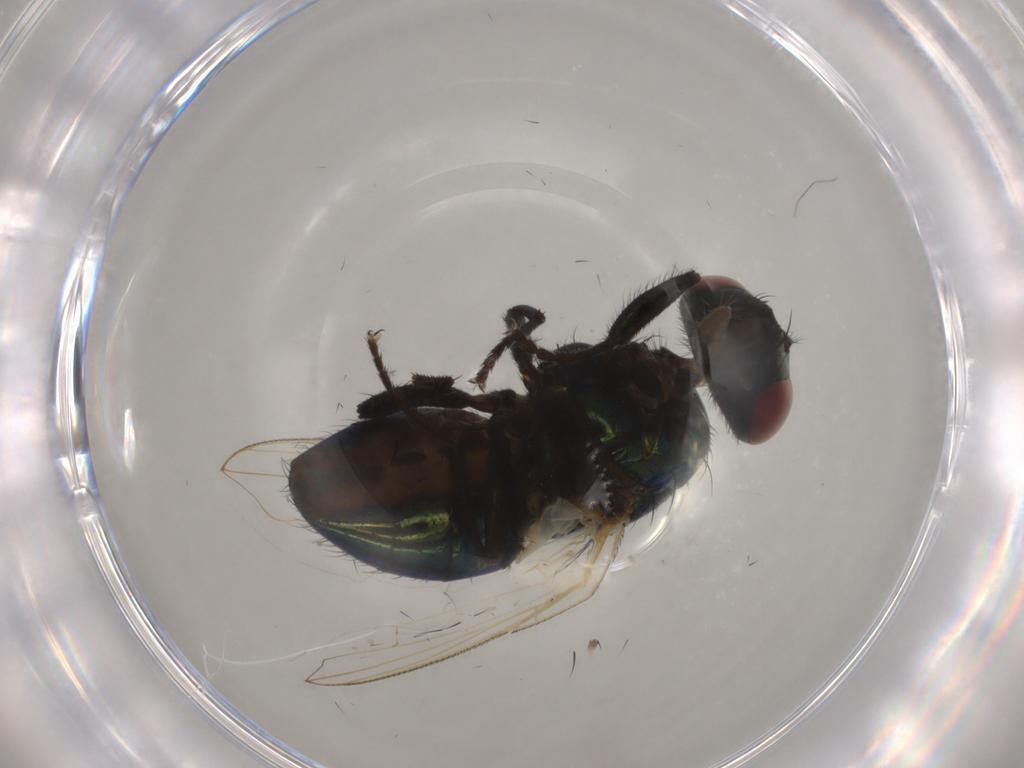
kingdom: Animalia
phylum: Arthropoda
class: Insecta
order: Diptera
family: Muscidae
